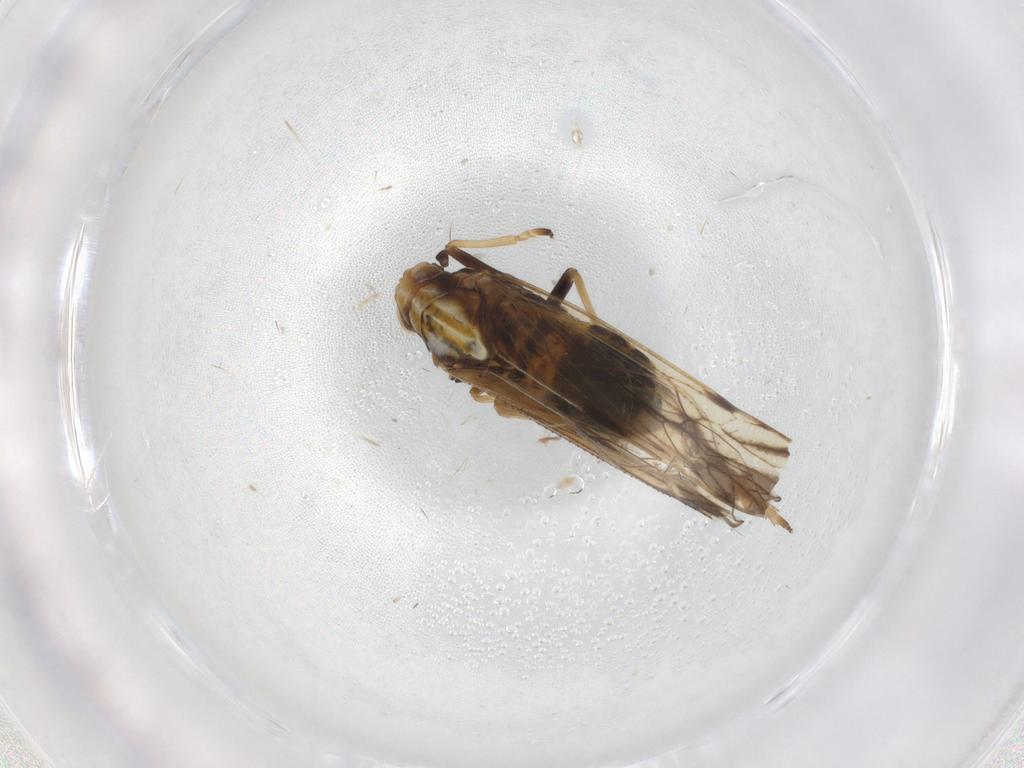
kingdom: Animalia
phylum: Arthropoda
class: Insecta
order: Hemiptera
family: Delphacidae
